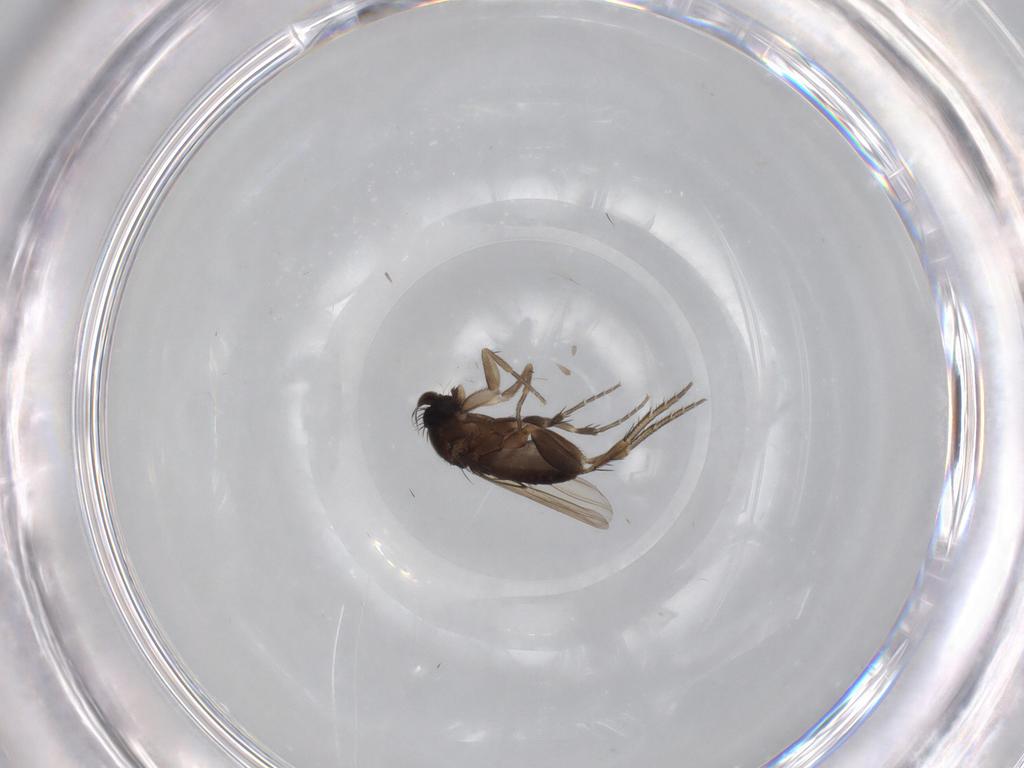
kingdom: Animalia
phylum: Arthropoda
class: Insecta
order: Diptera
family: Phoridae
